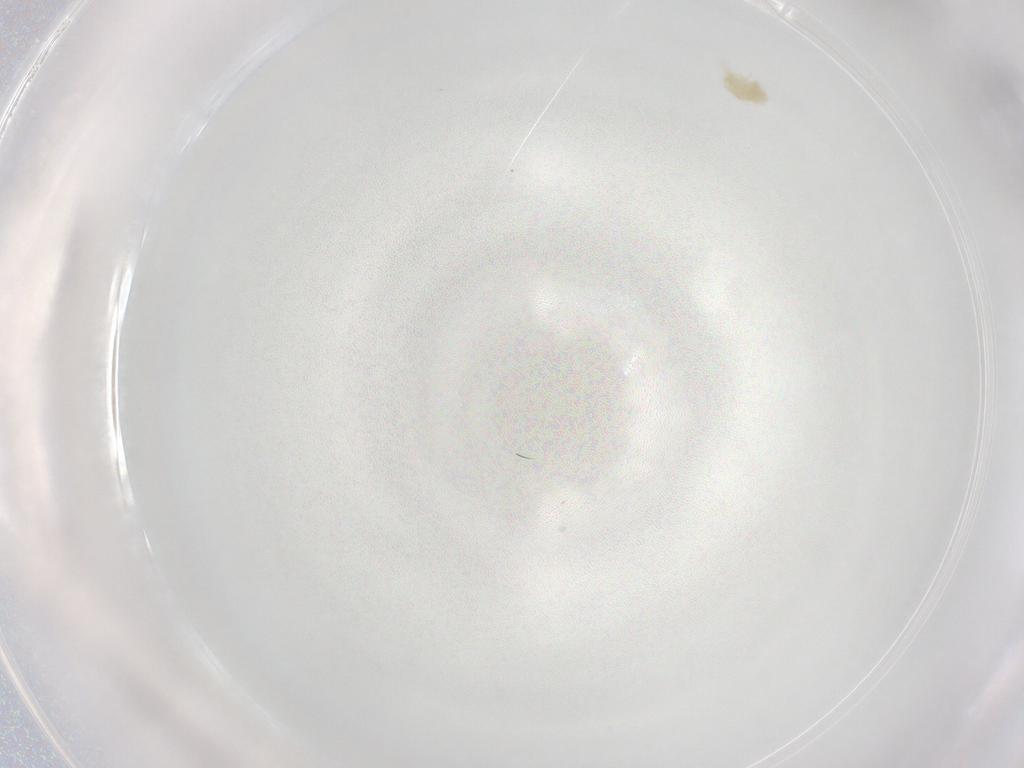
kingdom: Animalia
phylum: Arthropoda
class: Arachnida
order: Trombidiformes
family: Eupodidae
